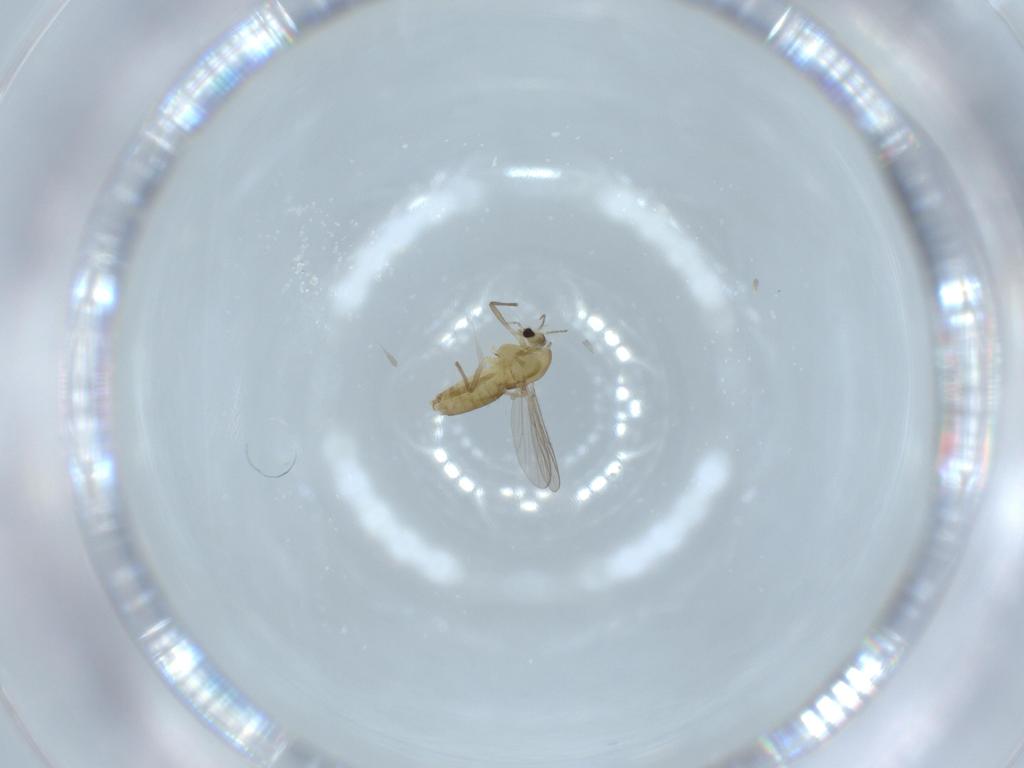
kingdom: Animalia
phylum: Arthropoda
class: Insecta
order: Diptera
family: Chironomidae
